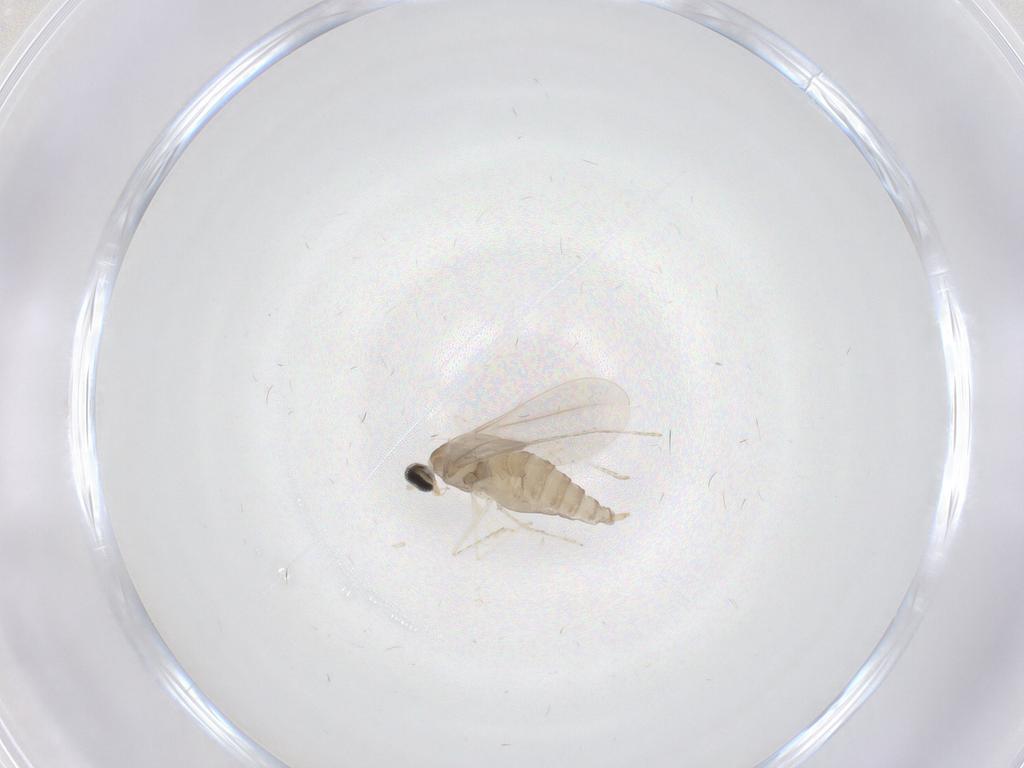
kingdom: Animalia
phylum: Arthropoda
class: Insecta
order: Diptera
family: Cecidomyiidae
